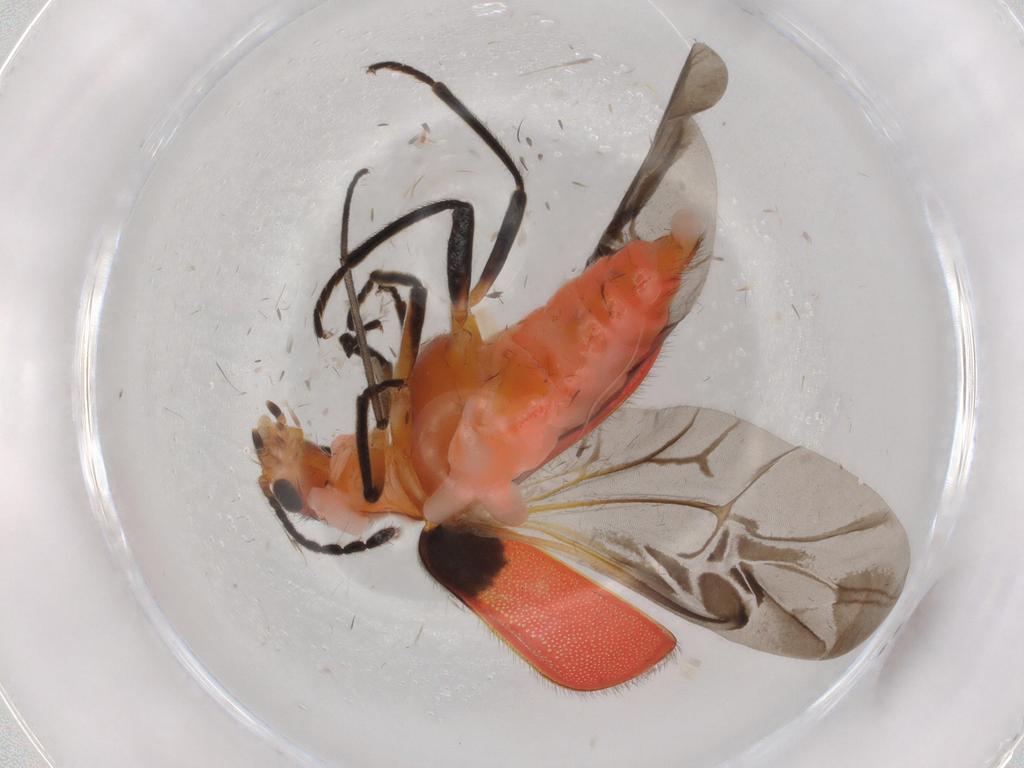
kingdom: Animalia
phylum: Arthropoda
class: Insecta
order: Coleoptera
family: Melyridae
